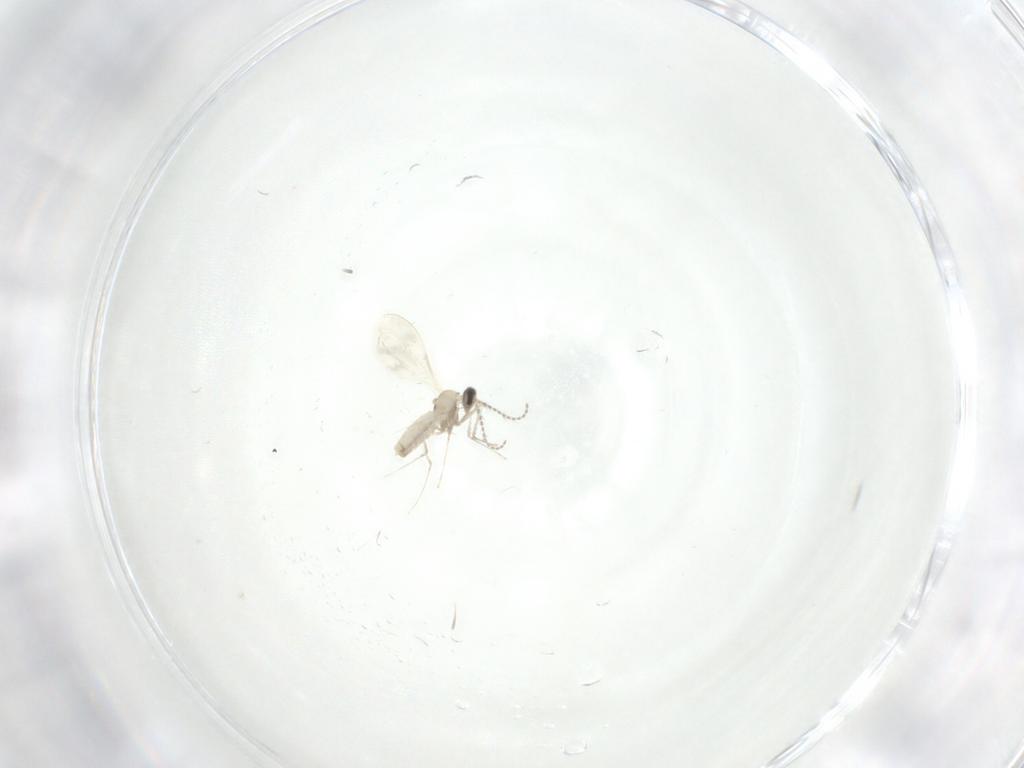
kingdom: Animalia
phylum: Arthropoda
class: Insecta
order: Diptera
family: Cecidomyiidae
